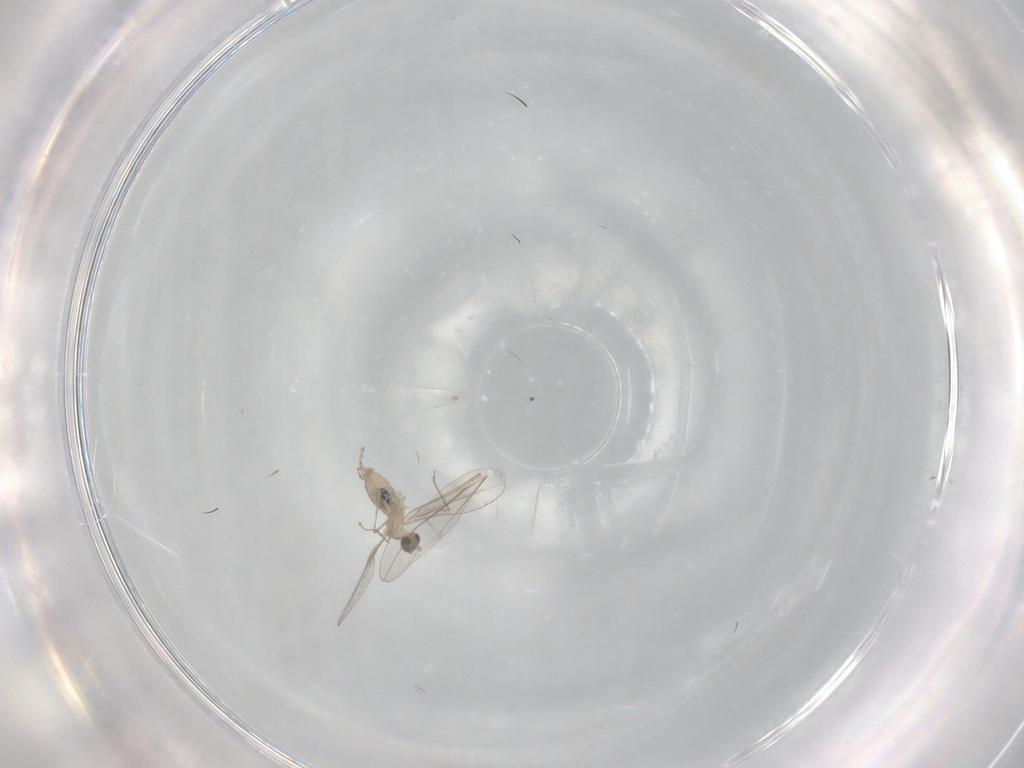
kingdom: Animalia
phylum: Arthropoda
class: Insecta
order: Diptera
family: Cecidomyiidae
